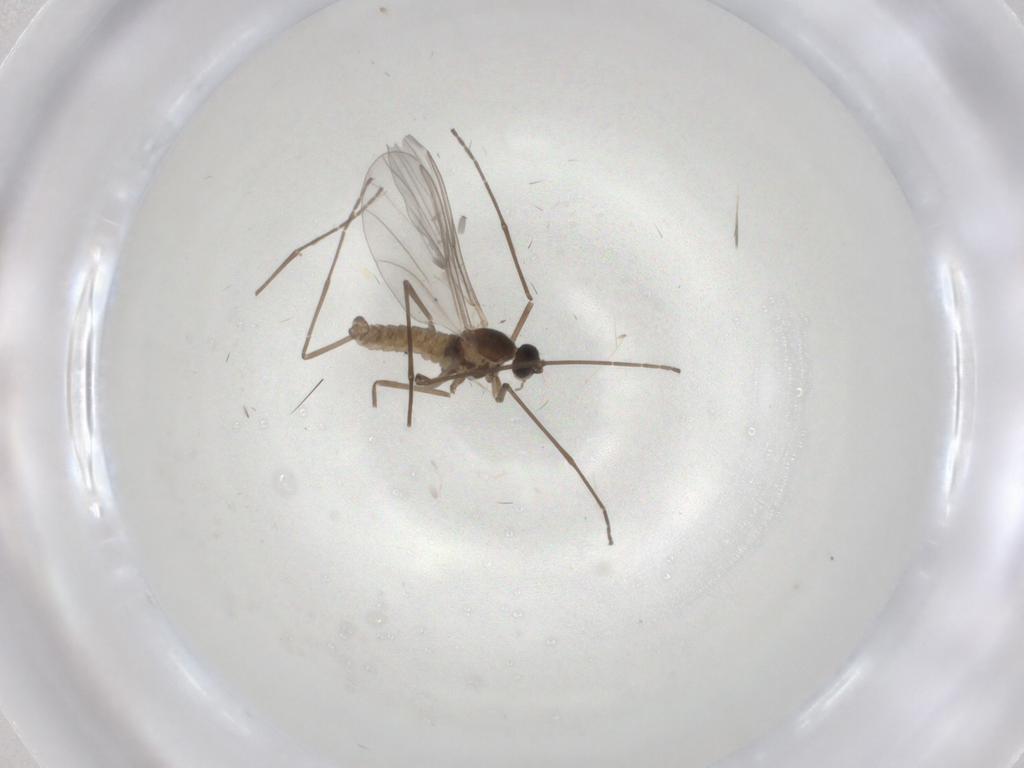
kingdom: Animalia
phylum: Arthropoda
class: Insecta
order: Diptera
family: Cecidomyiidae
